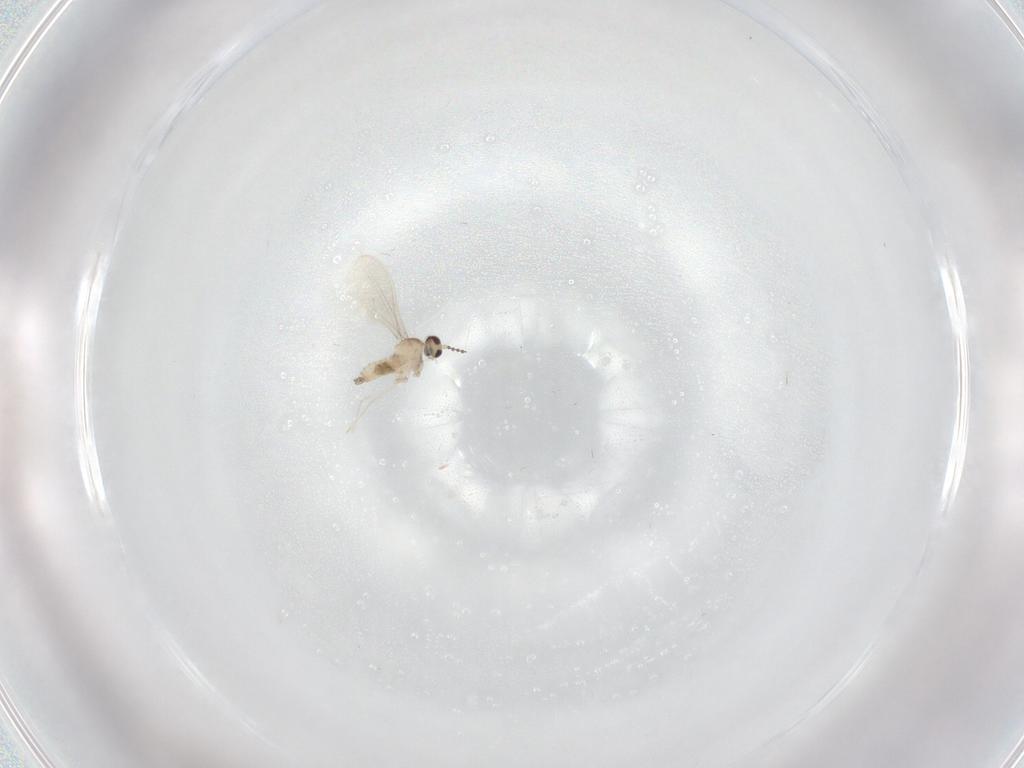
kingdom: Animalia
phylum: Arthropoda
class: Insecta
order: Diptera
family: Cecidomyiidae
